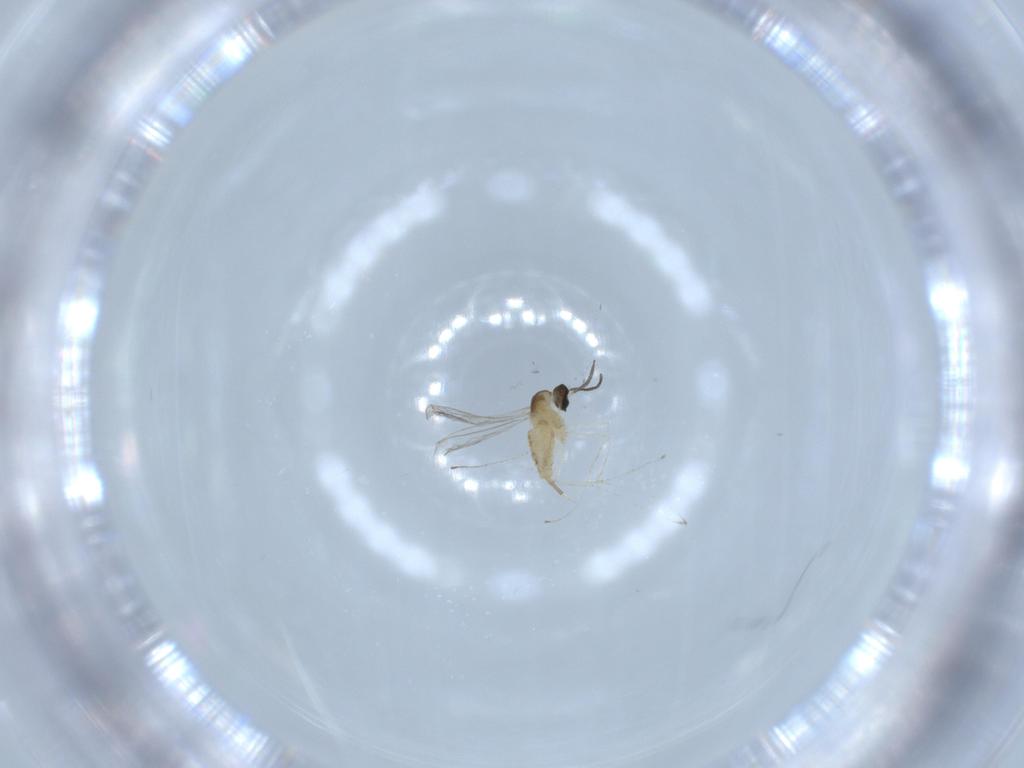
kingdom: Animalia
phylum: Arthropoda
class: Insecta
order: Diptera
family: Cecidomyiidae
